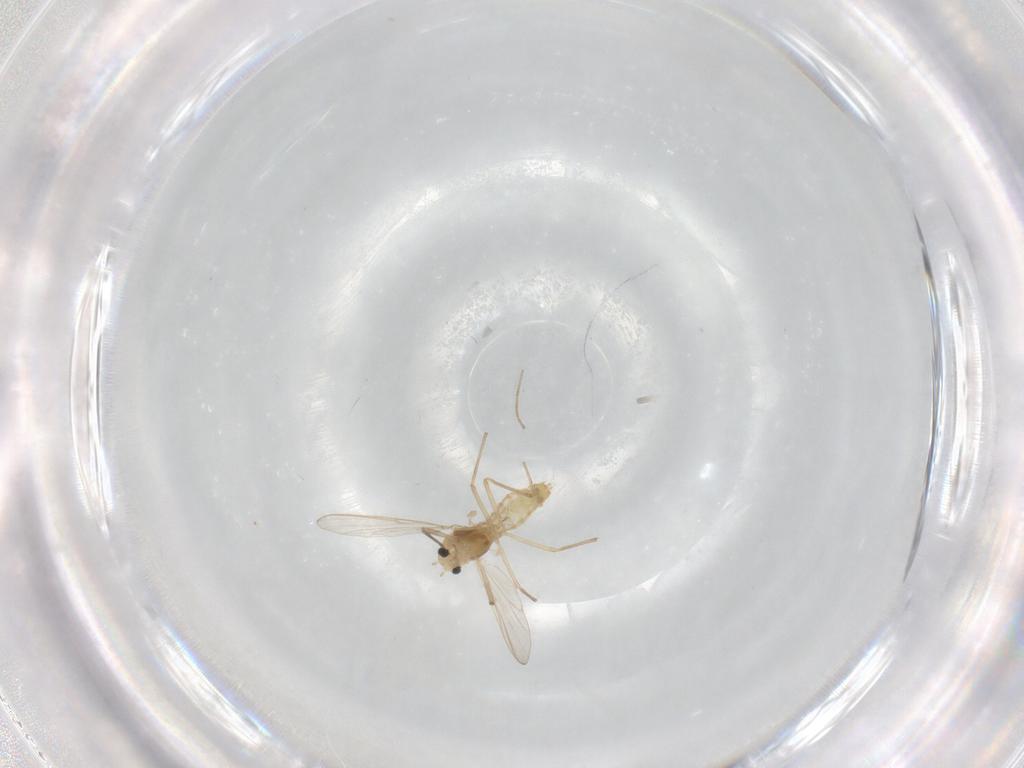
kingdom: Animalia
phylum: Arthropoda
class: Insecta
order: Diptera
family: Chironomidae
